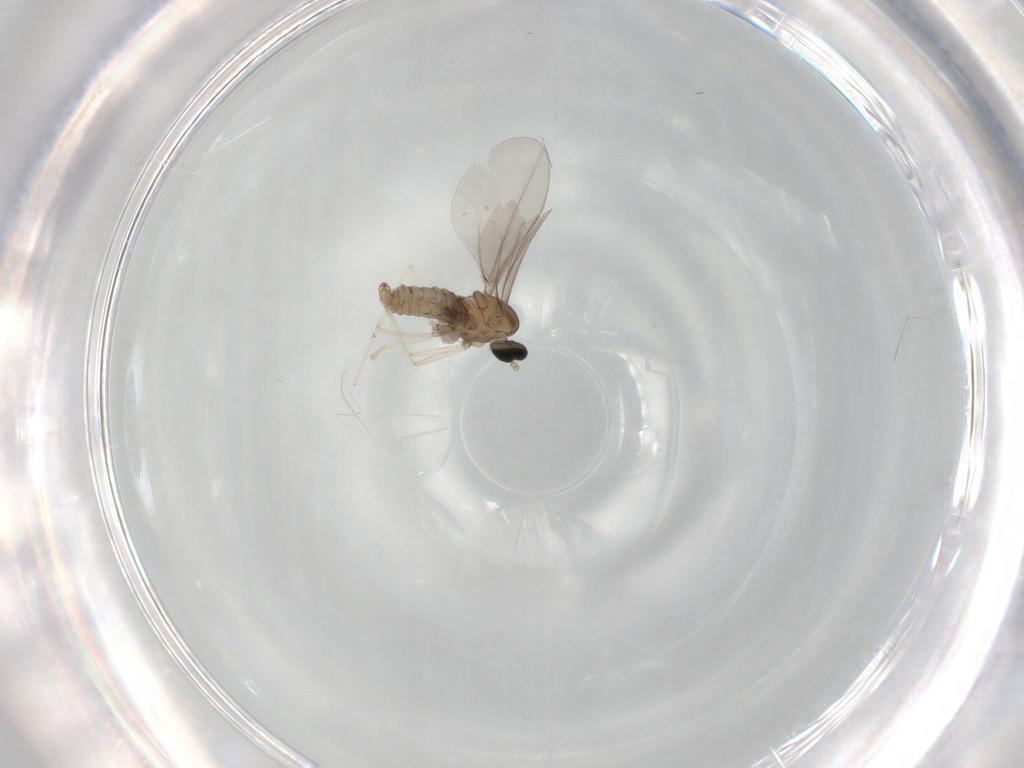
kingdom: Animalia
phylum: Arthropoda
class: Insecta
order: Diptera
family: Cecidomyiidae
